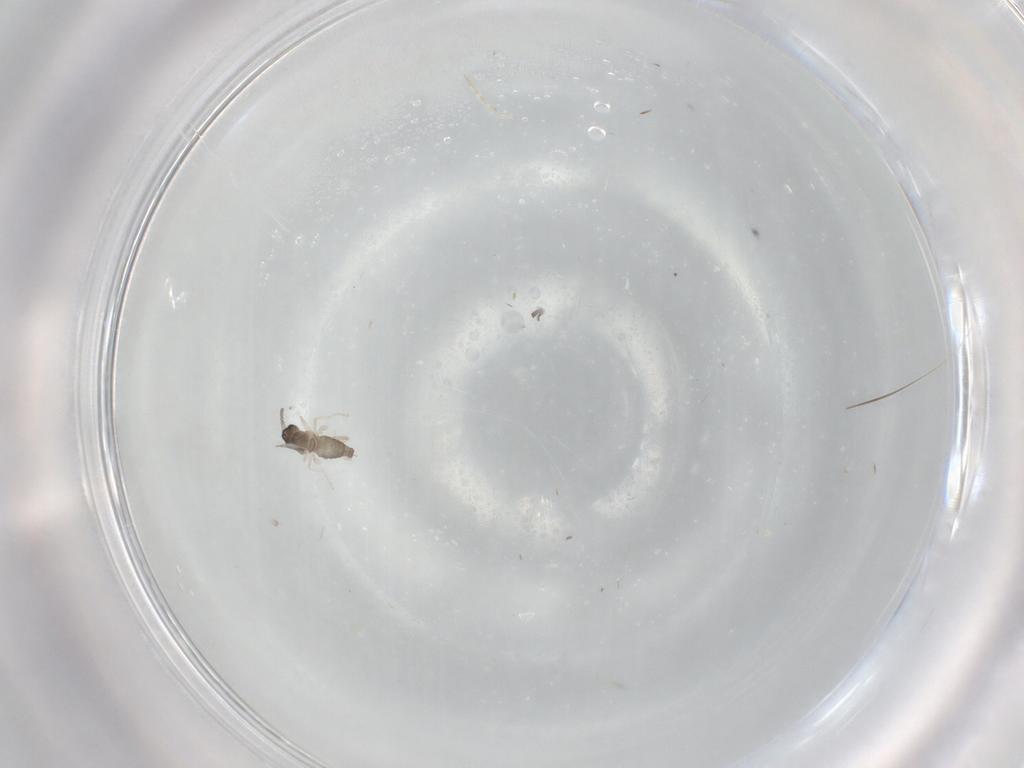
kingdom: Animalia
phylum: Arthropoda
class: Insecta
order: Diptera
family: Cecidomyiidae
